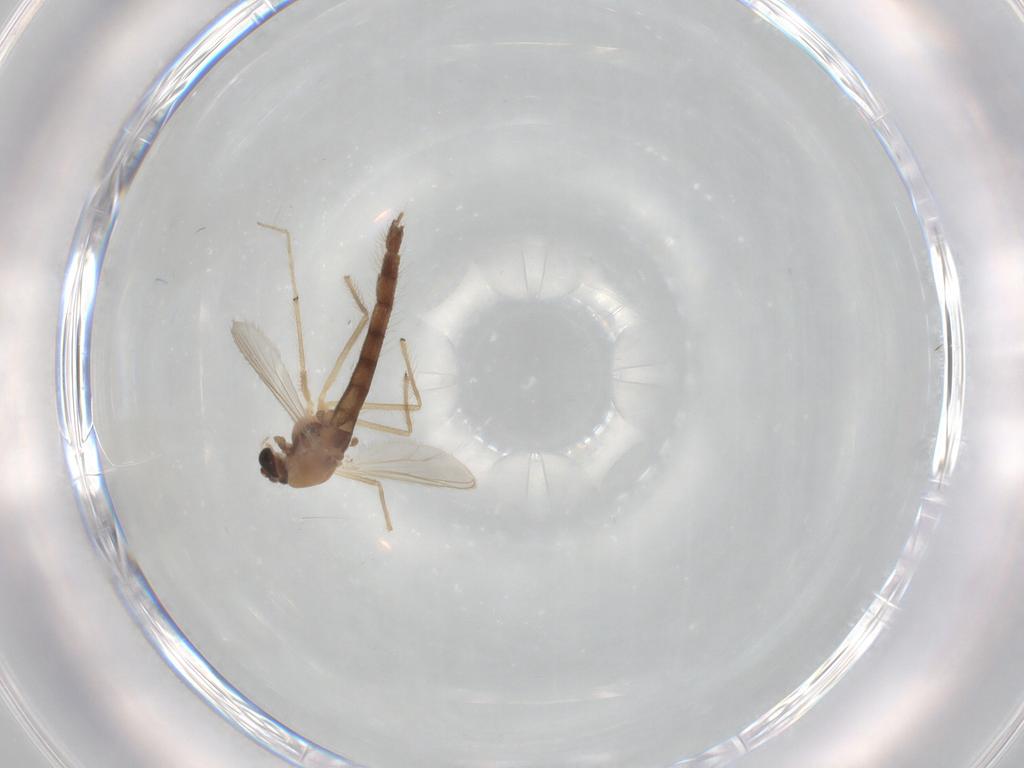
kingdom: Animalia
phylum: Arthropoda
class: Insecta
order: Diptera
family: Chironomidae
